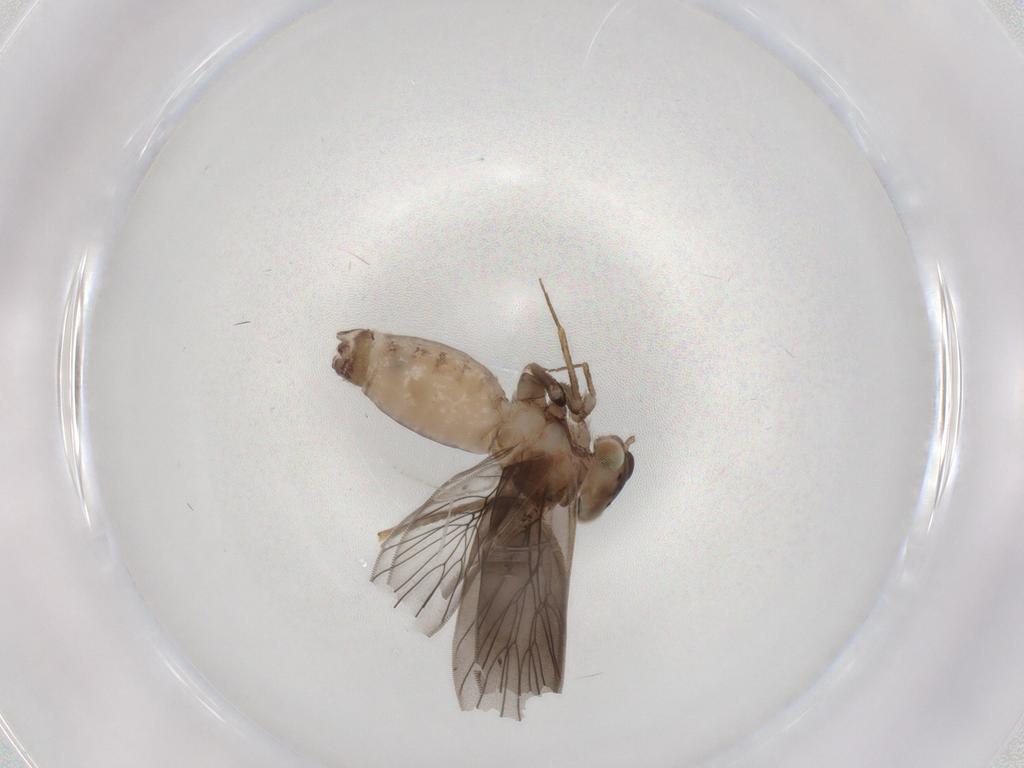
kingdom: Animalia
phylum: Arthropoda
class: Insecta
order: Psocodea
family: Lepidopsocidae
